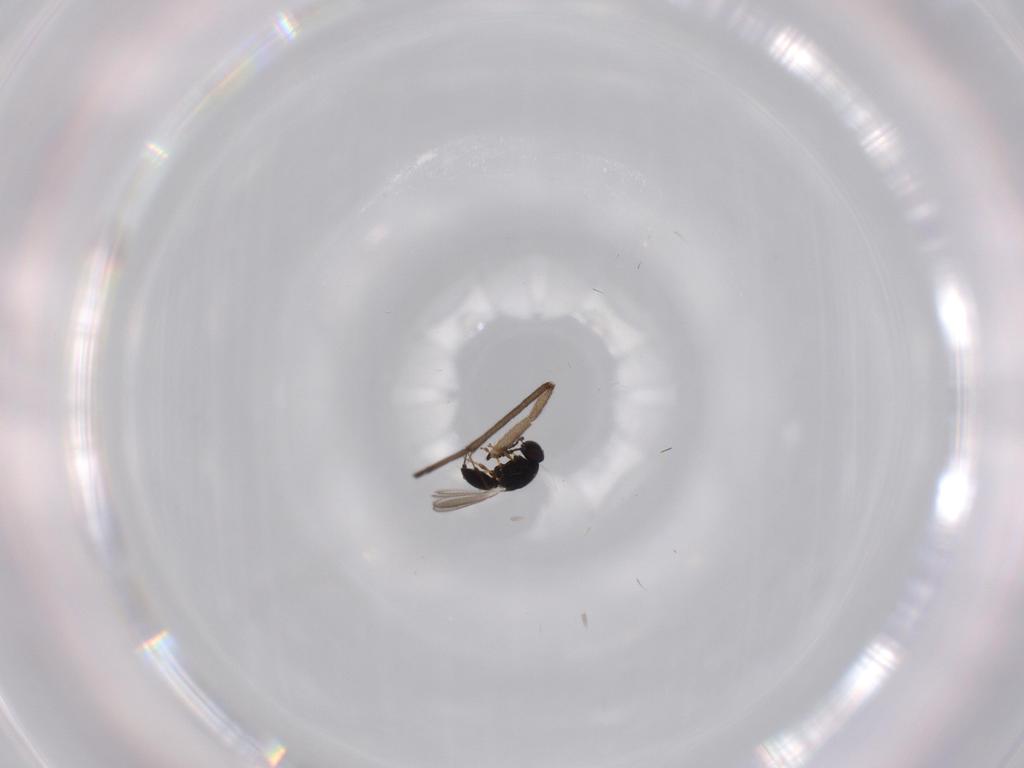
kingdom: Animalia
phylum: Arthropoda
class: Insecta
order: Hymenoptera
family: Platygastridae
